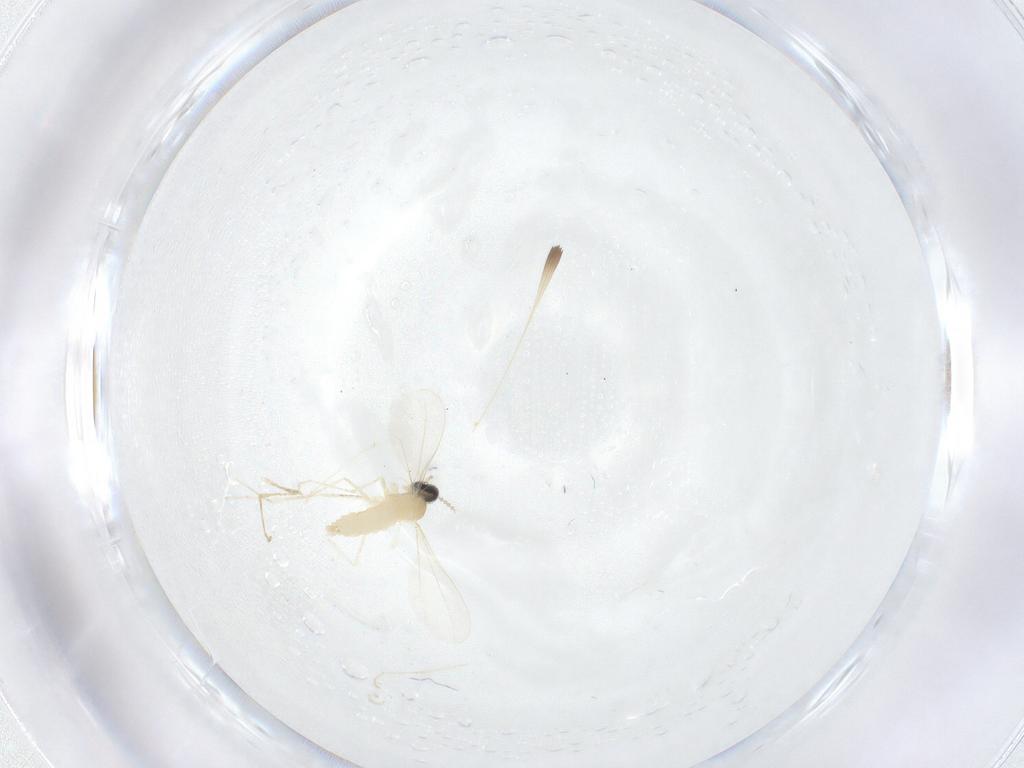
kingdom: Animalia
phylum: Arthropoda
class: Insecta
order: Diptera
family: Cecidomyiidae
